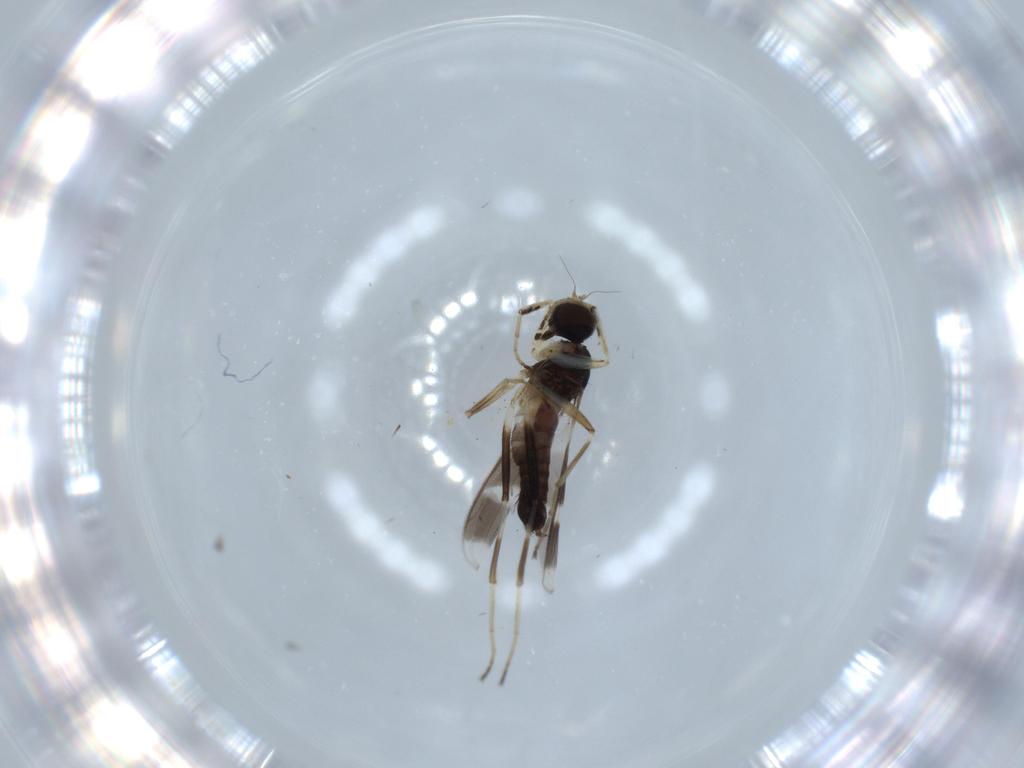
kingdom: Animalia
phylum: Arthropoda
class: Insecta
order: Diptera
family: Hybotidae
